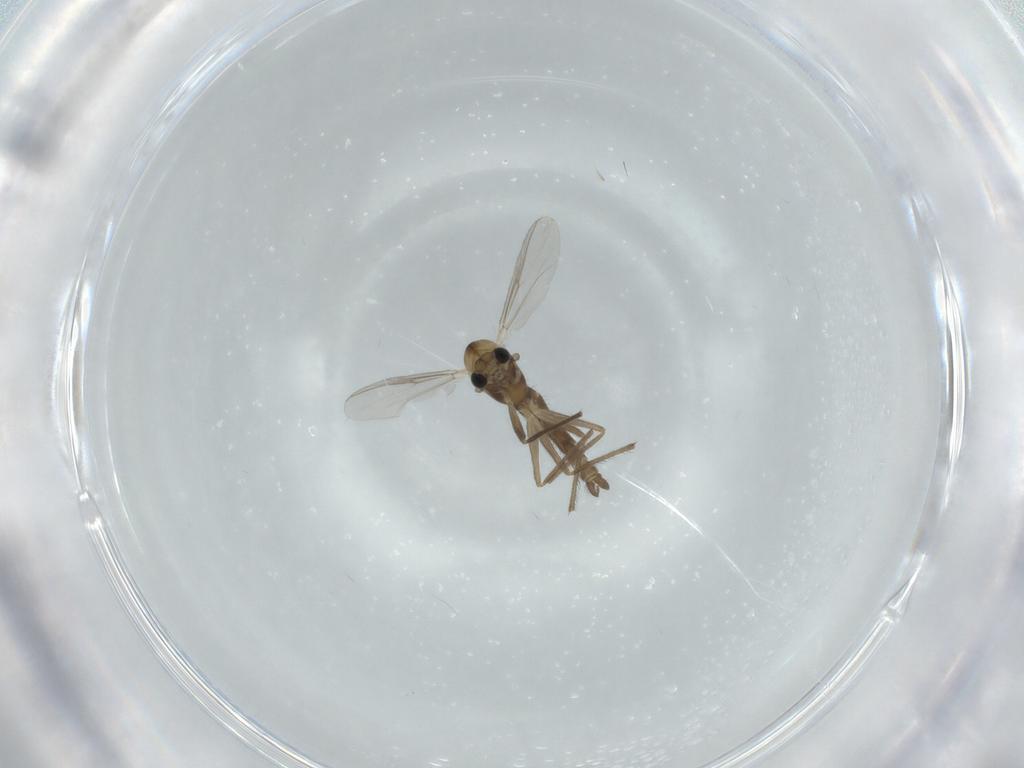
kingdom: Animalia
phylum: Arthropoda
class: Insecta
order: Diptera
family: Chironomidae
